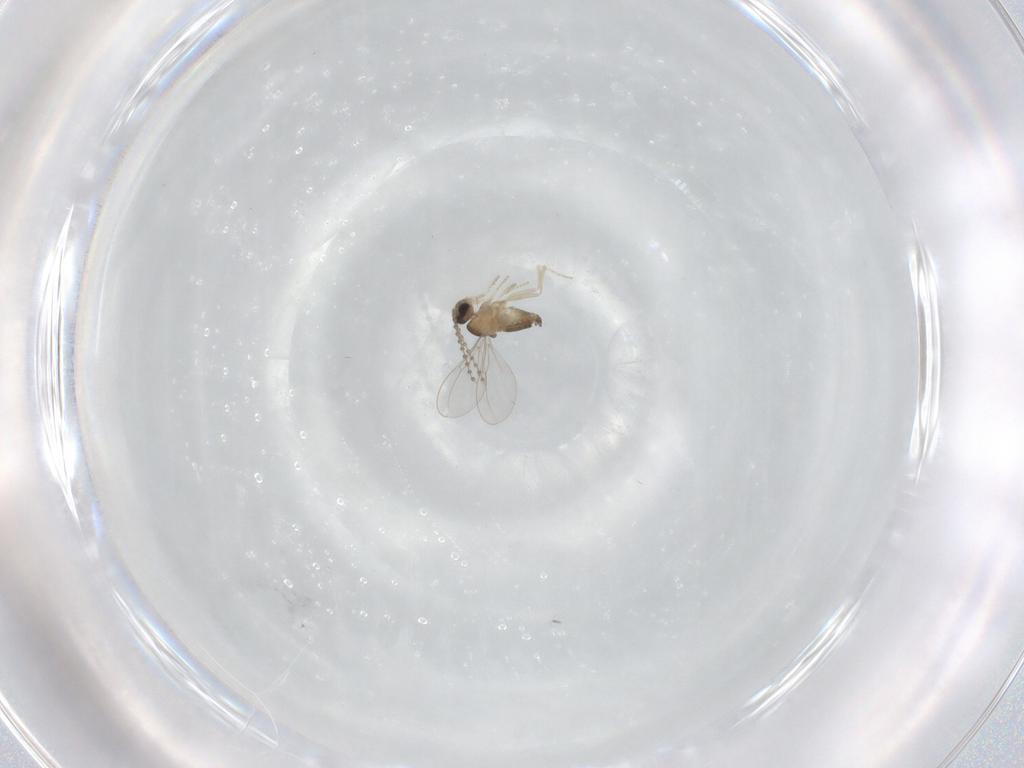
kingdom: Animalia
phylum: Arthropoda
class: Insecta
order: Diptera
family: Cecidomyiidae
